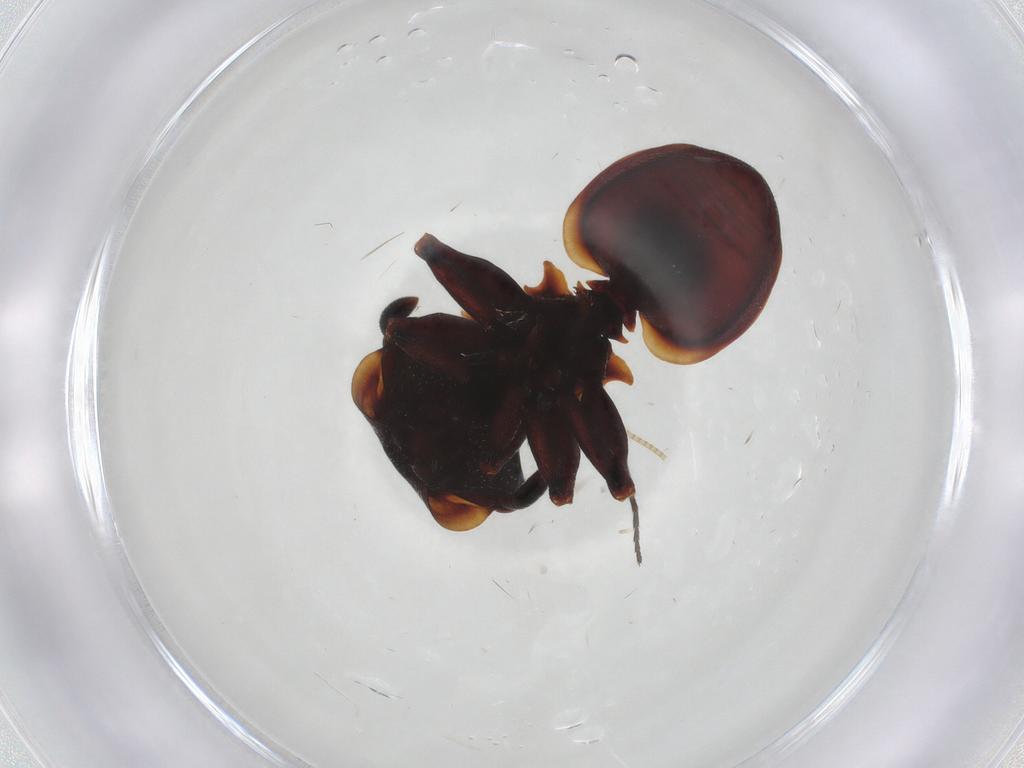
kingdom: Animalia
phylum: Arthropoda
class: Insecta
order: Hymenoptera
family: Formicidae
